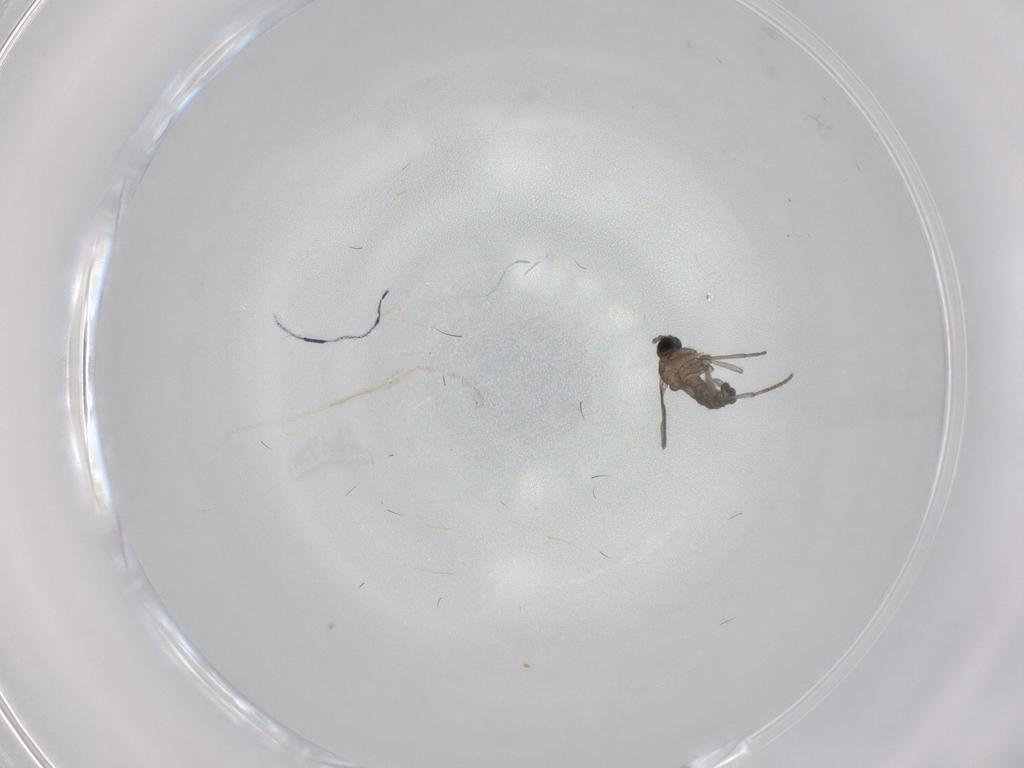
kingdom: Animalia
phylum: Arthropoda
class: Insecta
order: Diptera
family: Sciaridae
